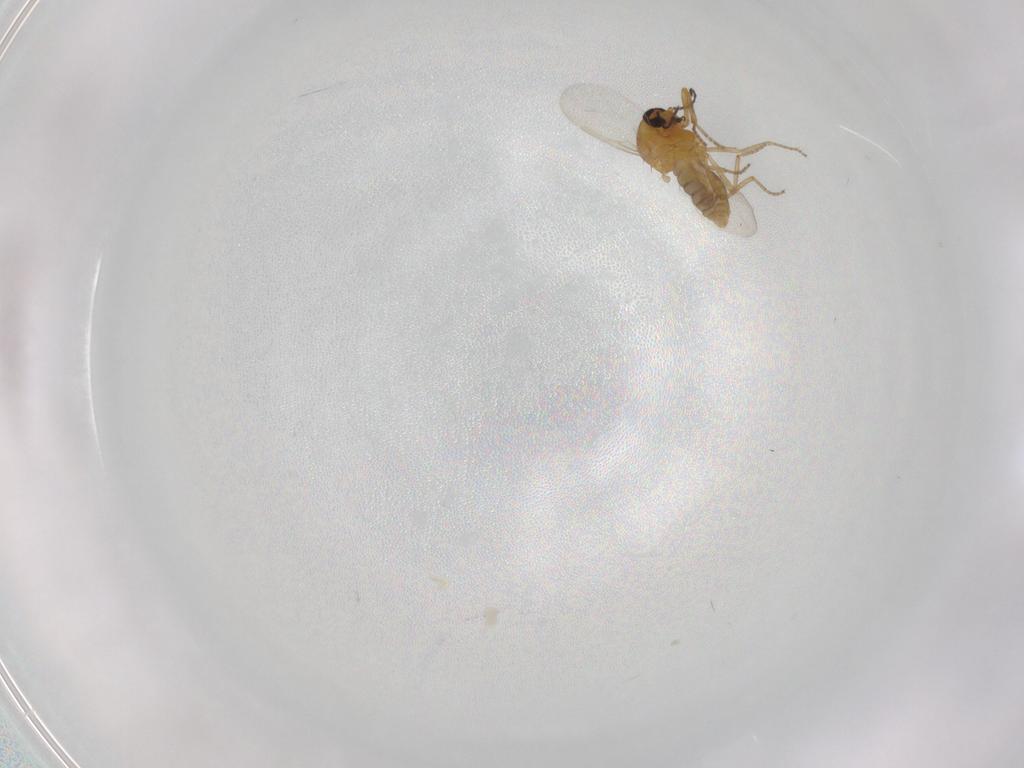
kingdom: Animalia
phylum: Arthropoda
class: Insecta
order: Diptera
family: Ceratopogonidae
